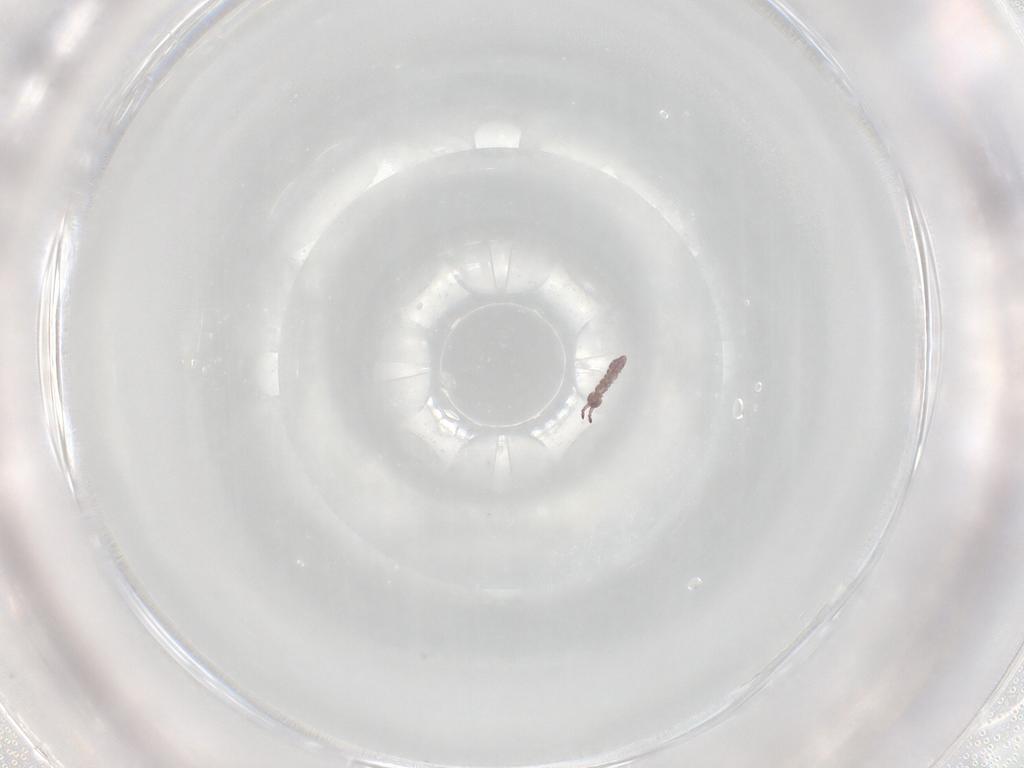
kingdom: Animalia
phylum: Arthropoda
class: Collembola
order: Entomobryomorpha
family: Isotomidae
